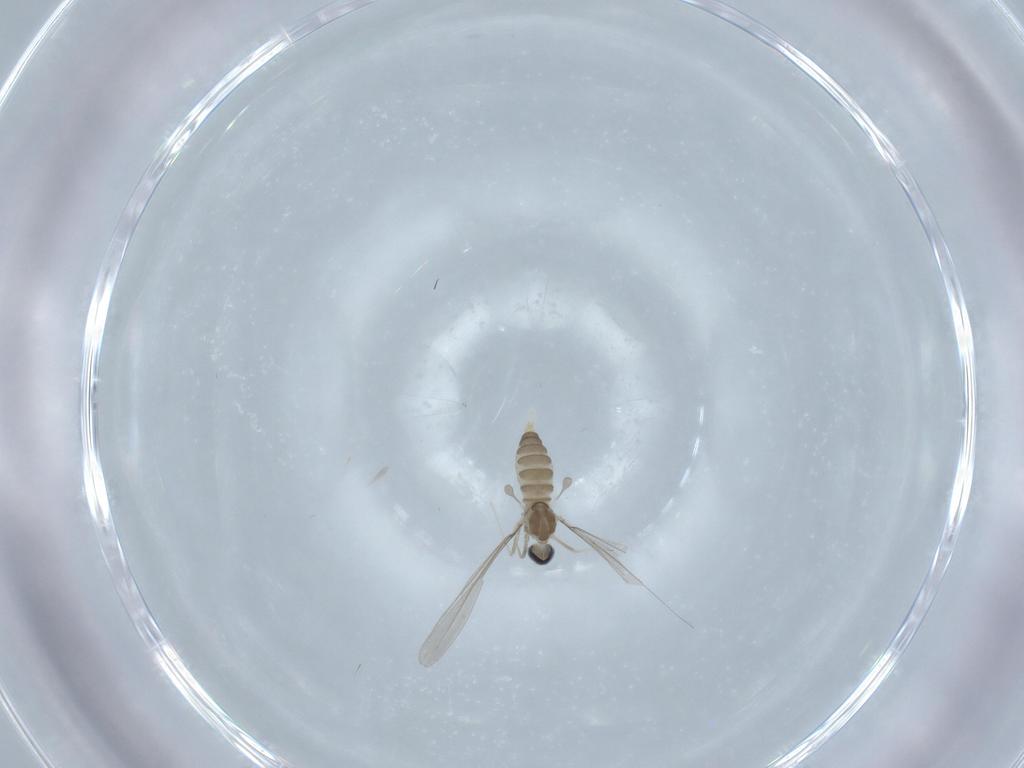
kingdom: Animalia
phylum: Arthropoda
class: Insecta
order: Diptera
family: Cecidomyiidae
